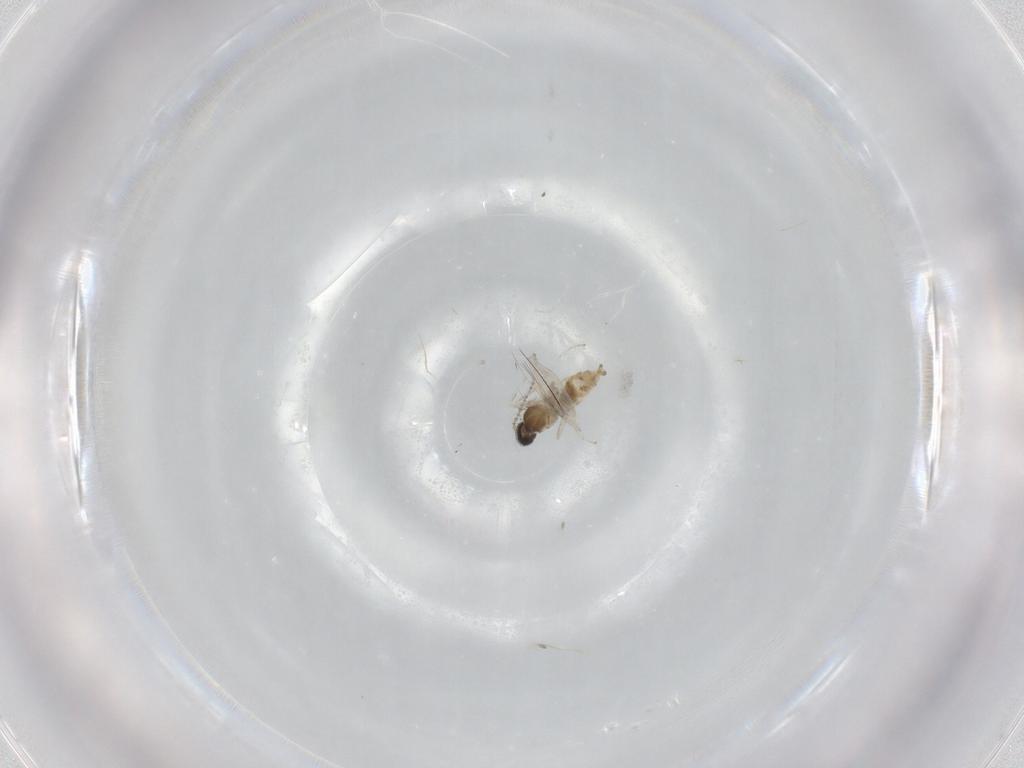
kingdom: Animalia
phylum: Arthropoda
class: Insecta
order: Diptera
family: Cecidomyiidae
